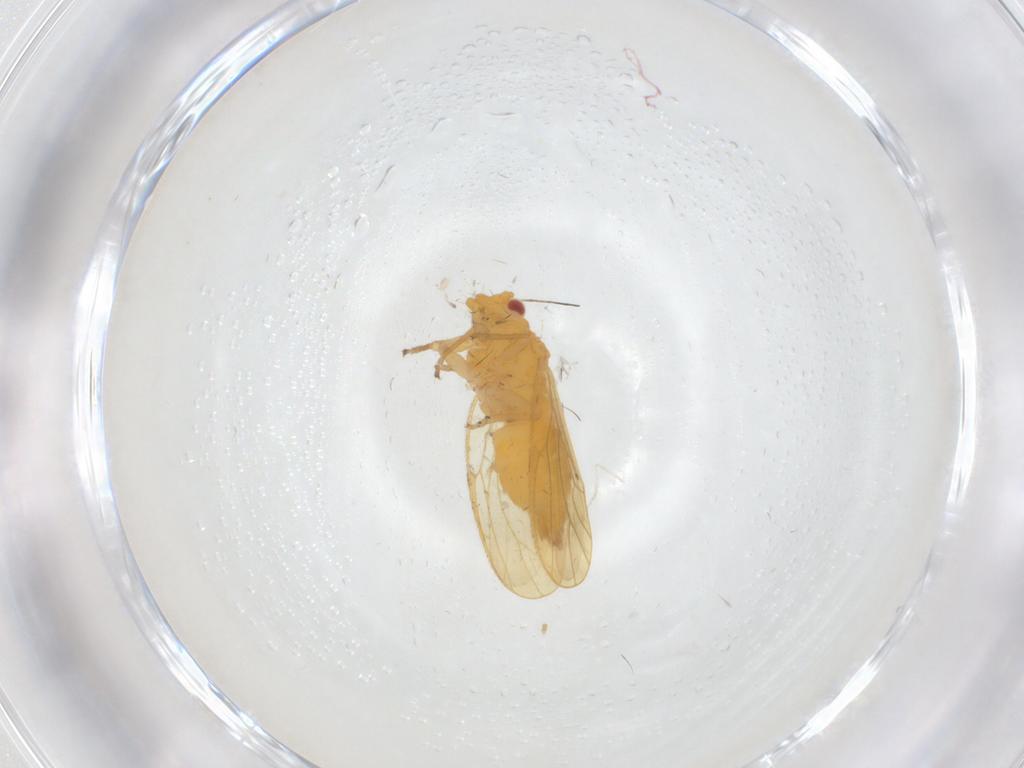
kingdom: Animalia
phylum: Arthropoda
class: Insecta
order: Hemiptera
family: Psyllidae
